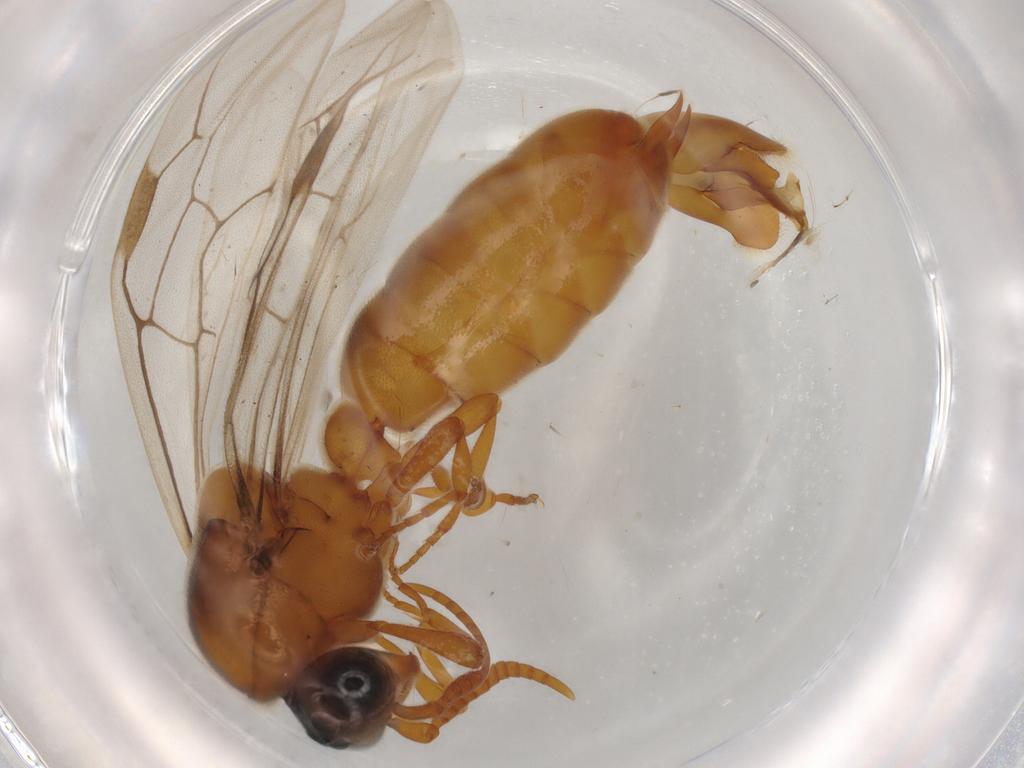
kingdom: Animalia
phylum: Arthropoda
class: Insecta
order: Hymenoptera
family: Formicidae
